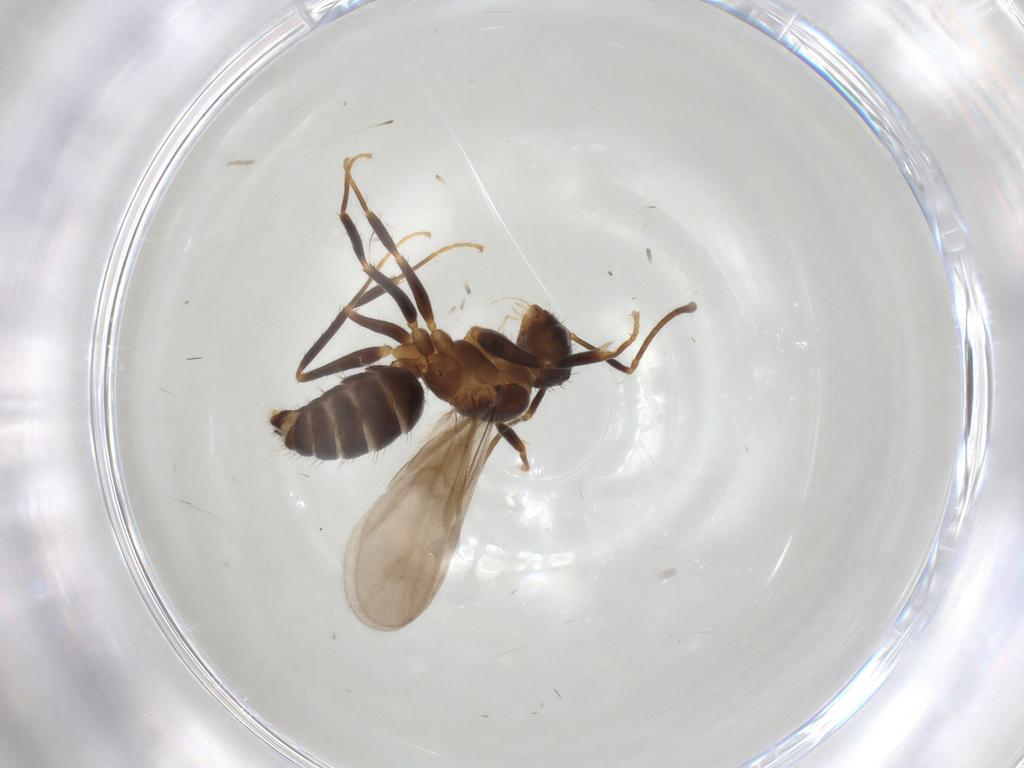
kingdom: Animalia
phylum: Arthropoda
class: Insecta
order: Hymenoptera
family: Formicidae
